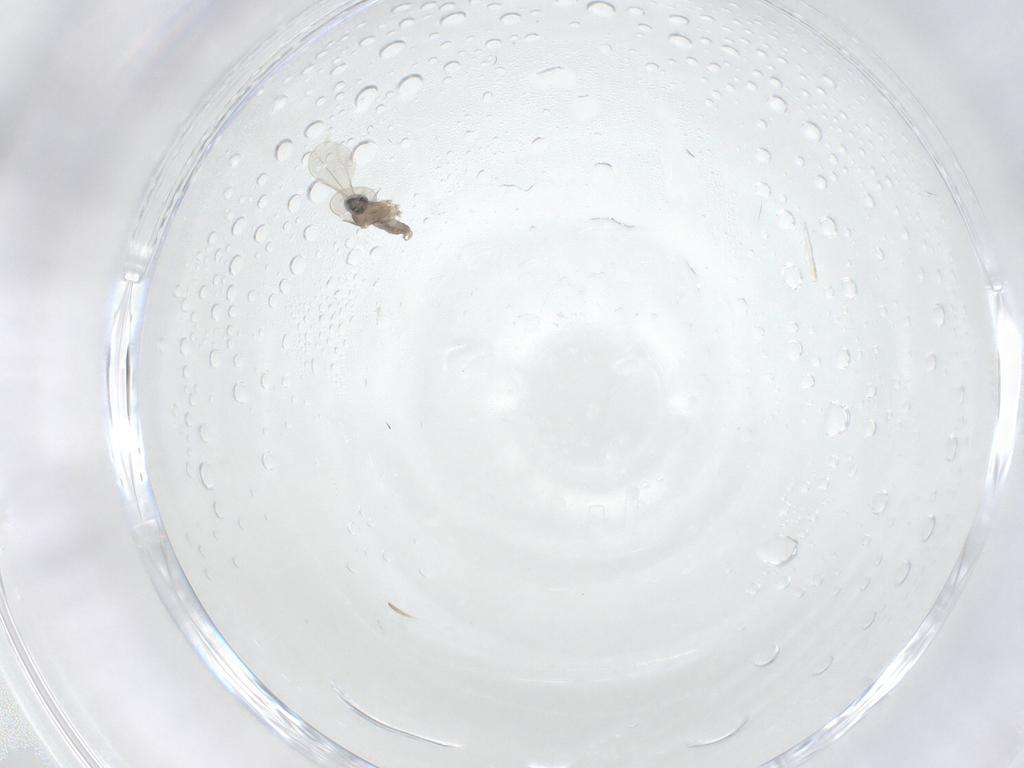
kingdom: Animalia
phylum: Arthropoda
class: Insecta
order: Diptera
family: Cecidomyiidae
